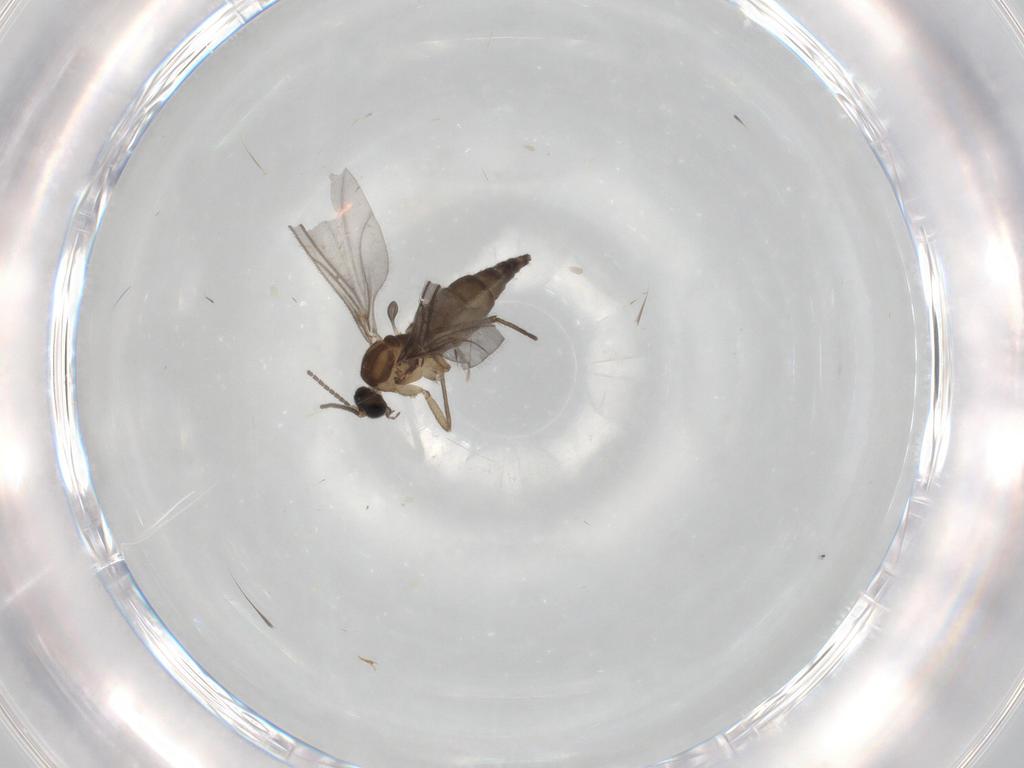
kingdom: Animalia
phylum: Arthropoda
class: Insecta
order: Diptera
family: Sciaridae
